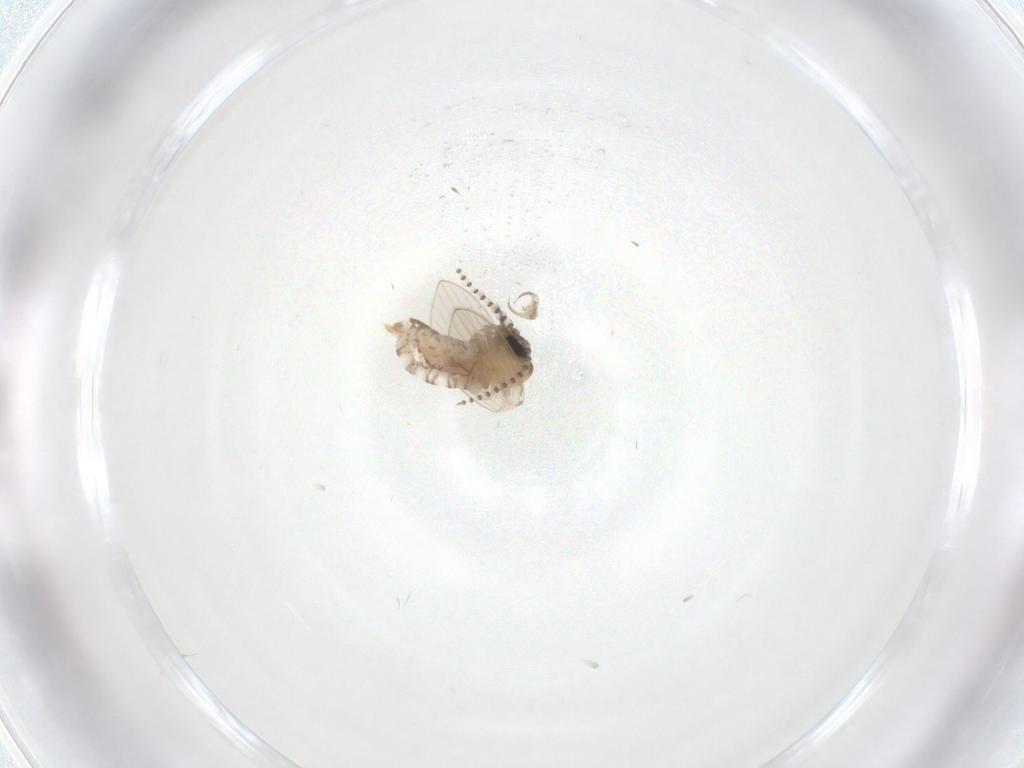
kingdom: Animalia
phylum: Arthropoda
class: Insecta
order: Diptera
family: Psychodidae
